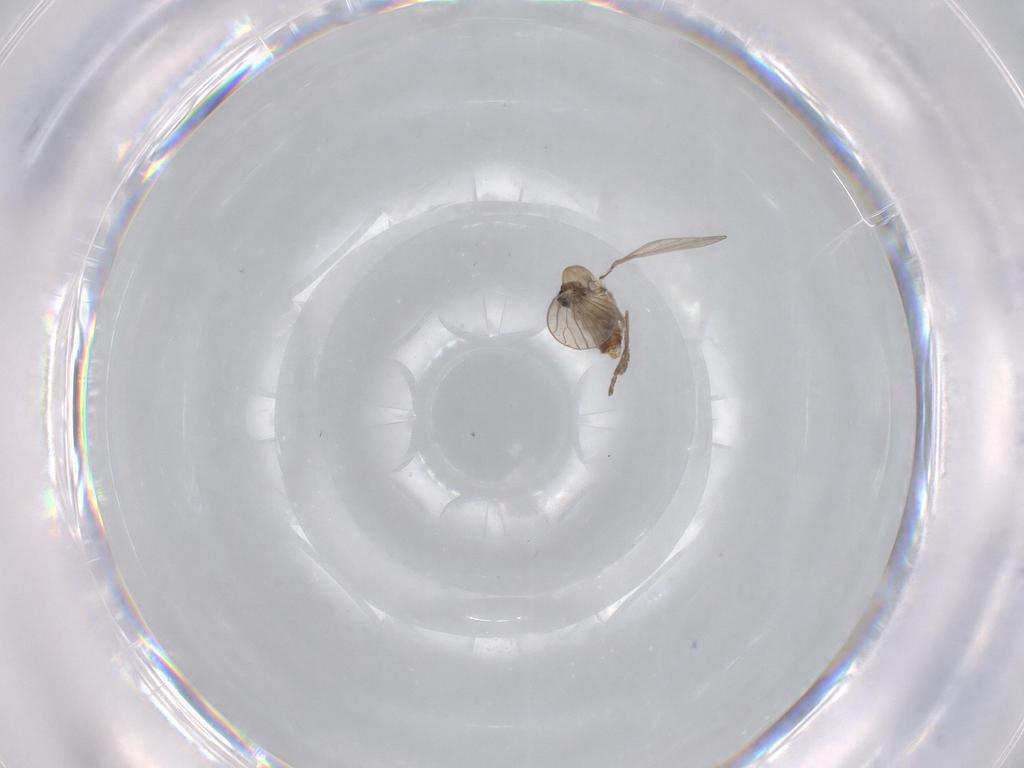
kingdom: Animalia
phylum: Arthropoda
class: Insecta
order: Diptera
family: Psychodidae
